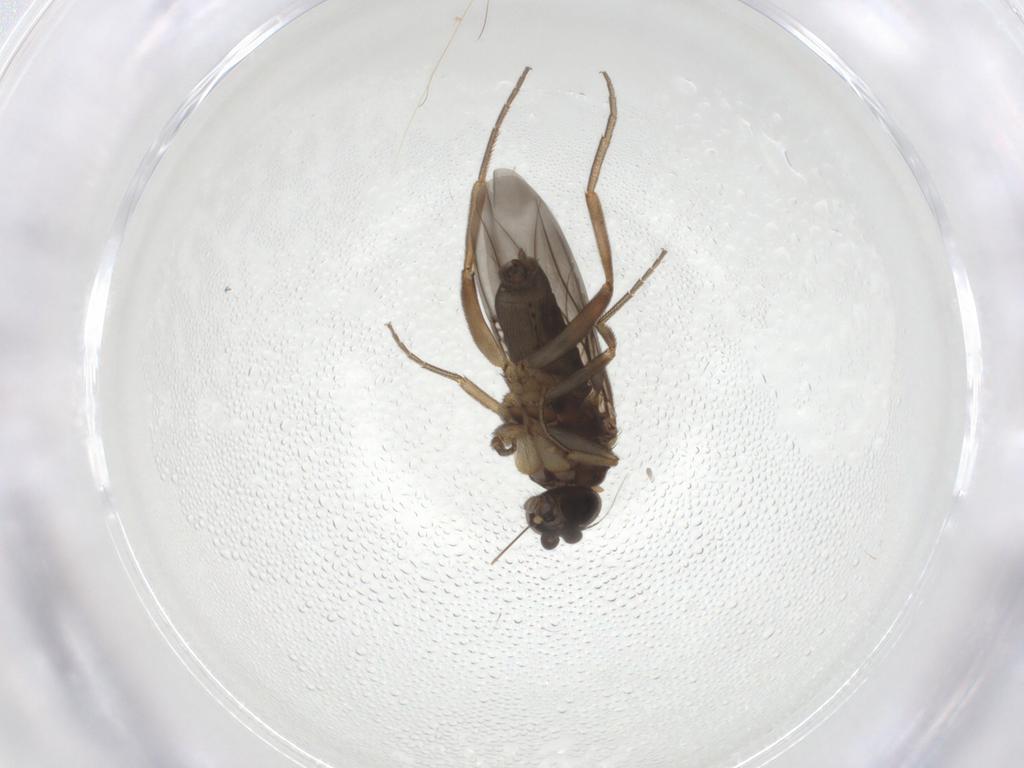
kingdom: Animalia
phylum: Arthropoda
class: Insecta
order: Diptera
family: Phoridae
